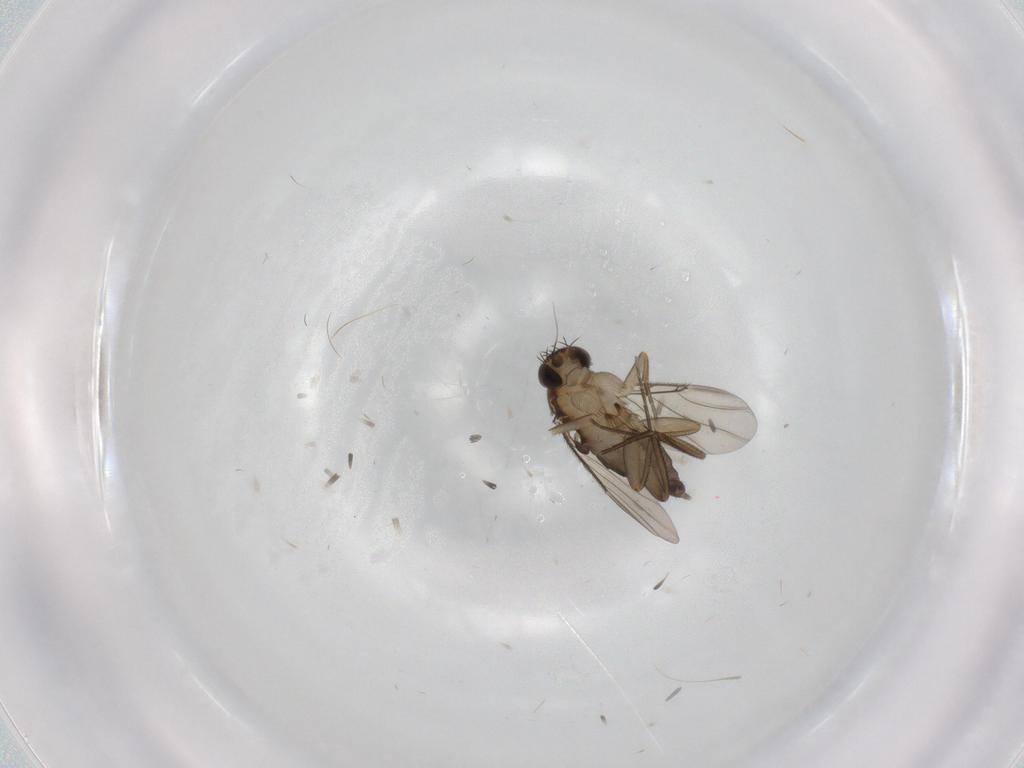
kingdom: Animalia
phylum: Arthropoda
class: Insecta
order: Diptera
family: Phoridae
